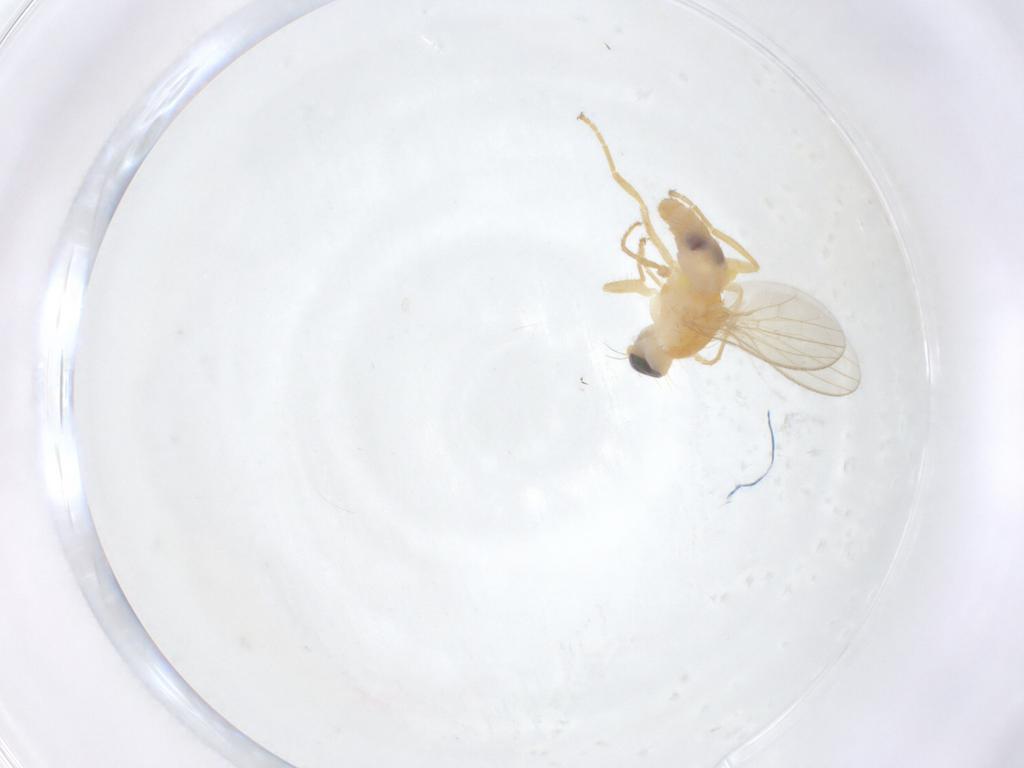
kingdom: Animalia
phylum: Arthropoda
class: Insecta
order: Diptera
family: Chyromyidae
